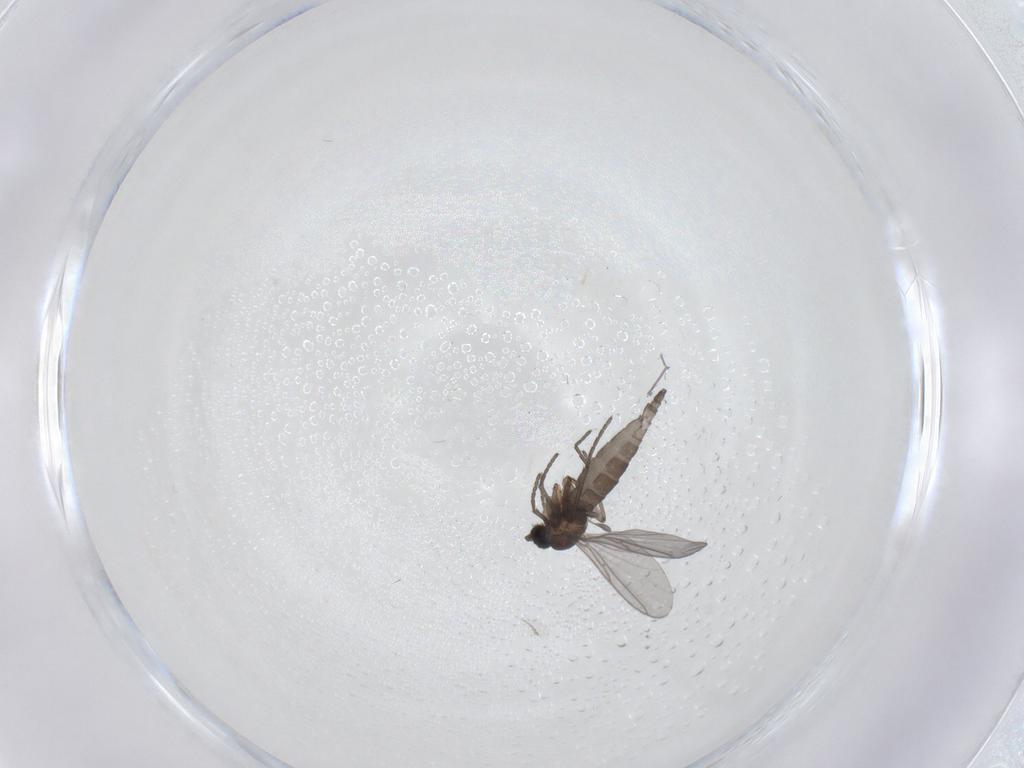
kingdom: Animalia
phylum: Arthropoda
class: Insecta
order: Diptera
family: Sciaridae
